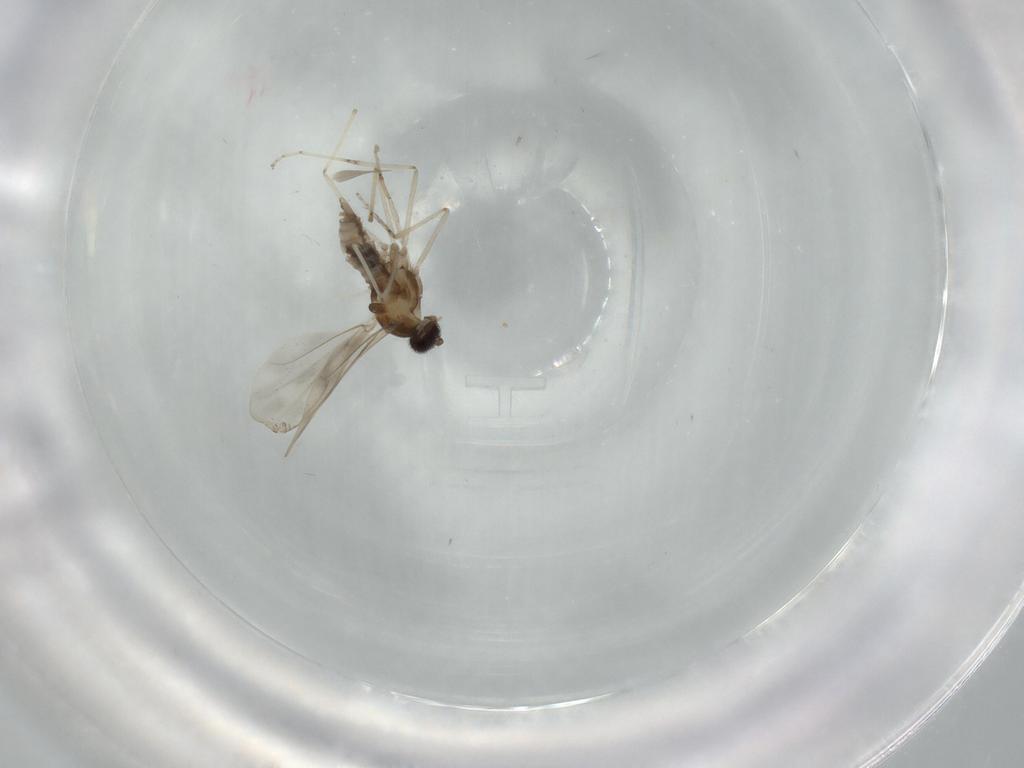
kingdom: Animalia
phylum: Arthropoda
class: Insecta
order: Diptera
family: Sciaridae
